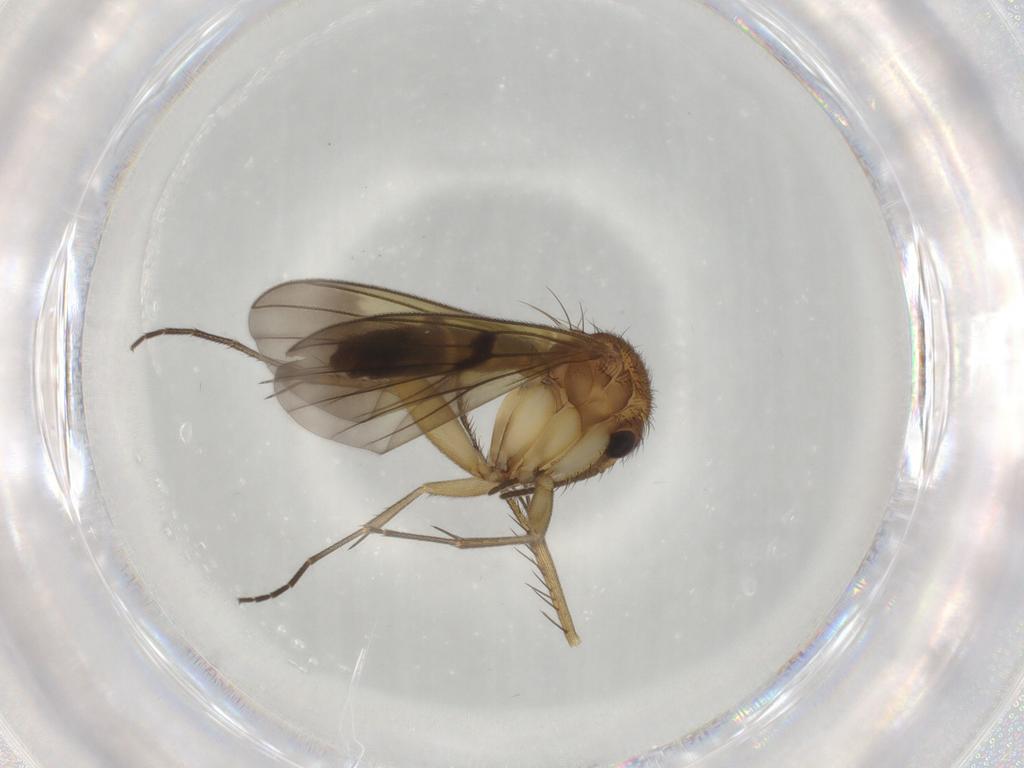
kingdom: Animalia
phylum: Arthropoda
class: Insecta
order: Diptera
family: Mycetophilidae
